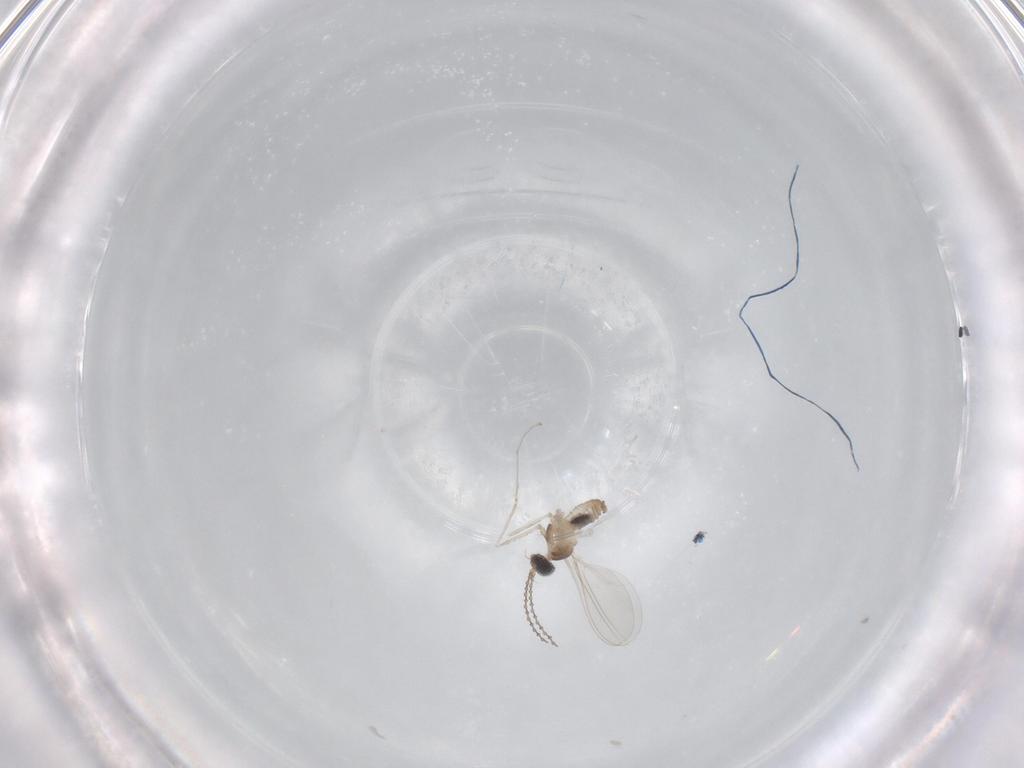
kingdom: Animalia
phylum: Arthropoda
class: Insecta
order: Diptera
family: Cecidomyiidae
